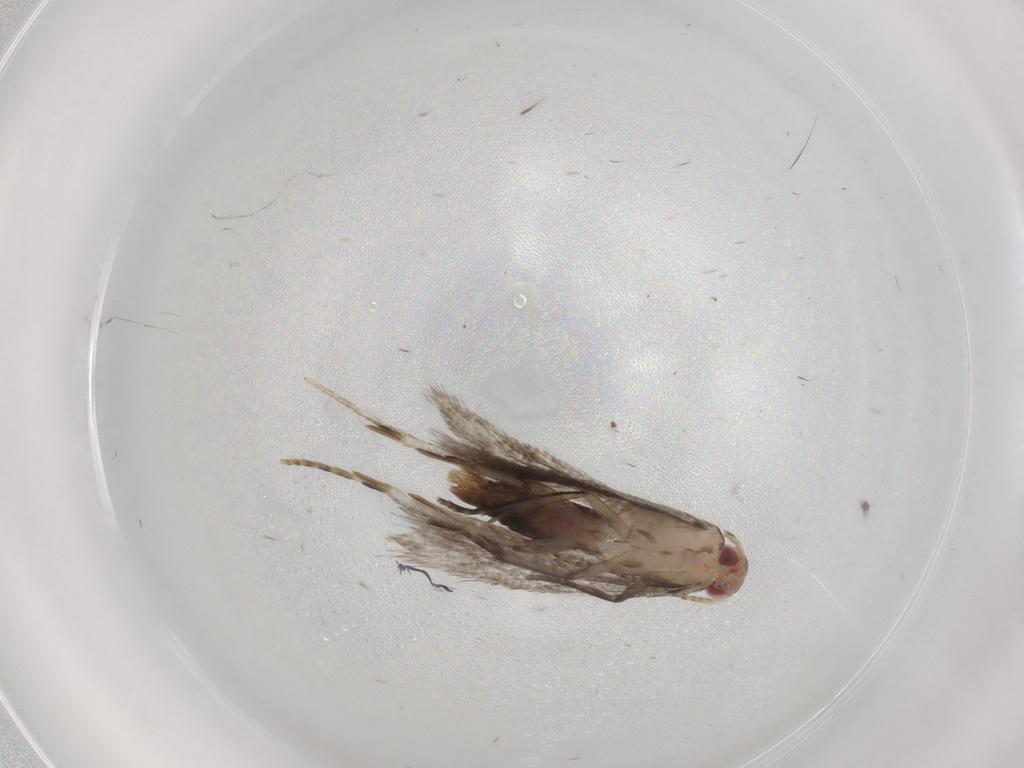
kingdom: Animalia
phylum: Arthropoda
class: Insecta
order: Lepidoptera
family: Gelechiidae
